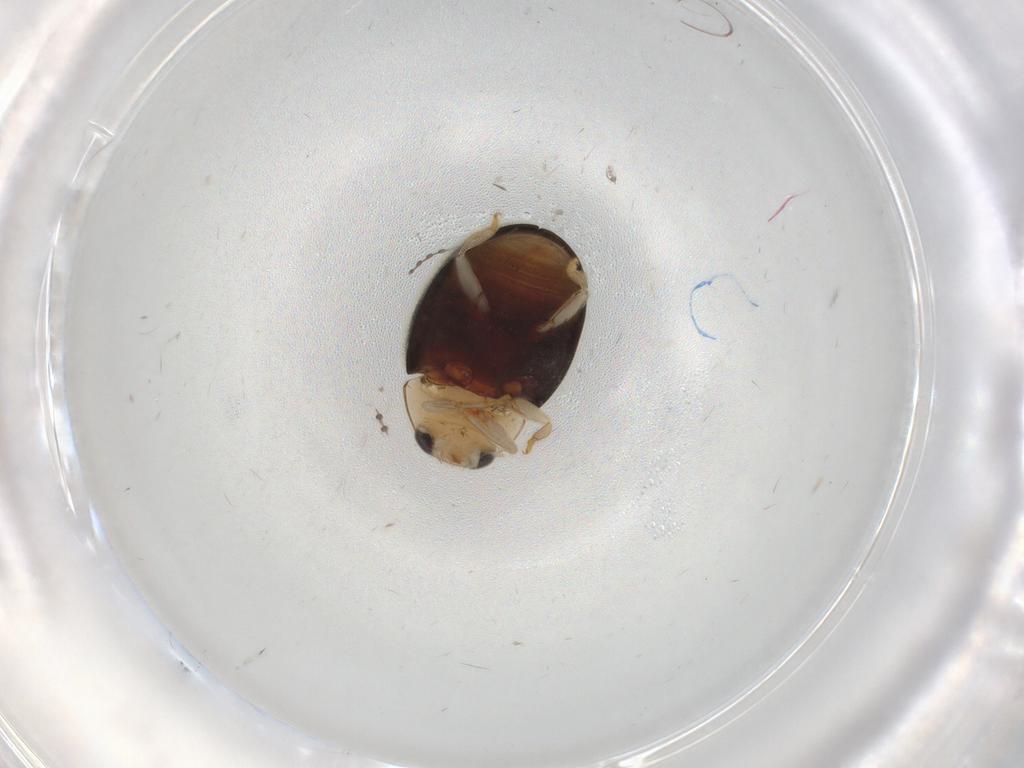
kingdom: Animalia
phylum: Arthropoda
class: Insecta
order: Coleoptera
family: Coccinellidae
